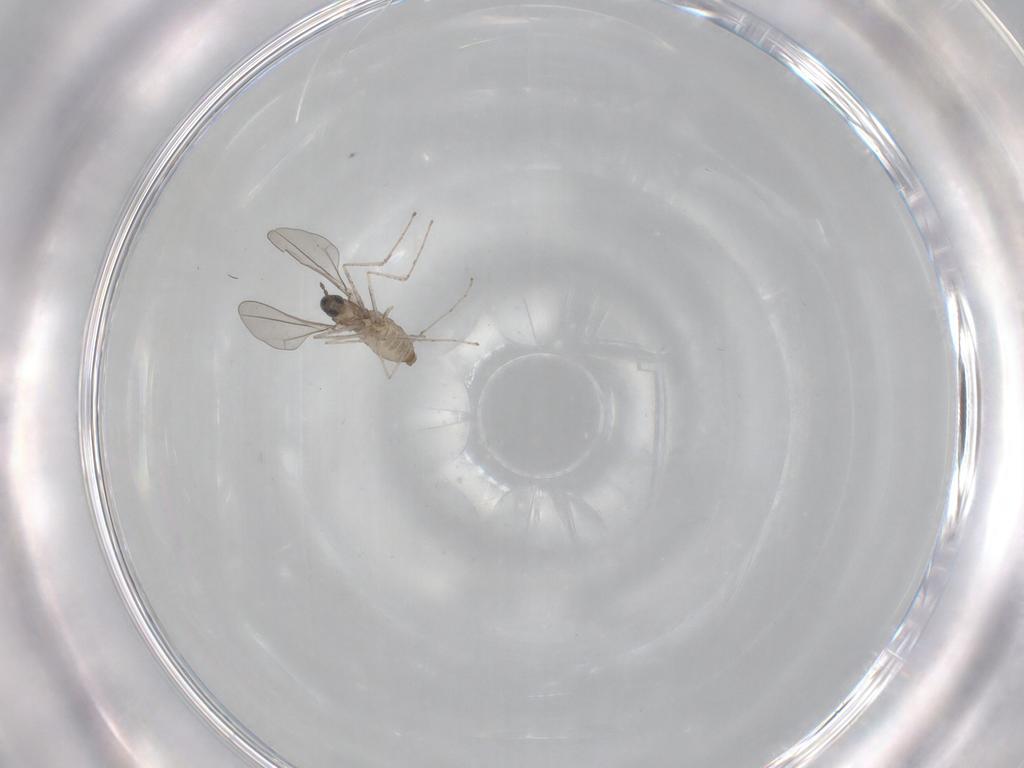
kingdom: Animalia
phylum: Arthropoda
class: Insecta
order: Diptera
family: Cecidomyiidae
